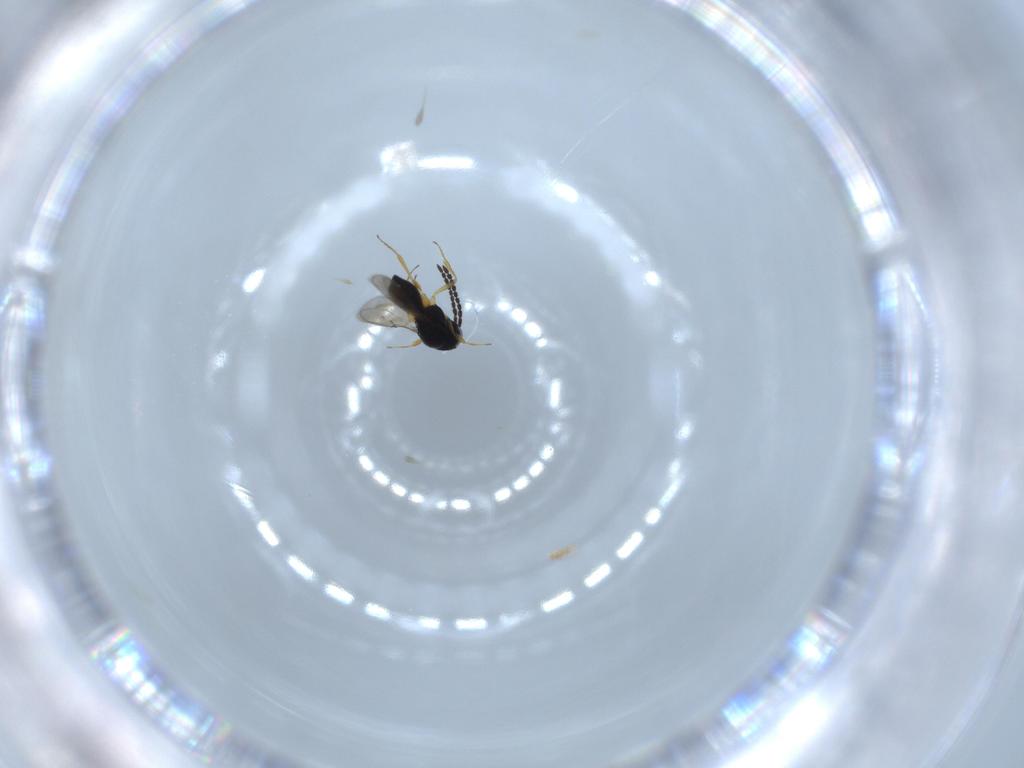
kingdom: Animalia
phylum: Arthropoda
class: Insecta
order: Hymenoptera
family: Scelionidae
